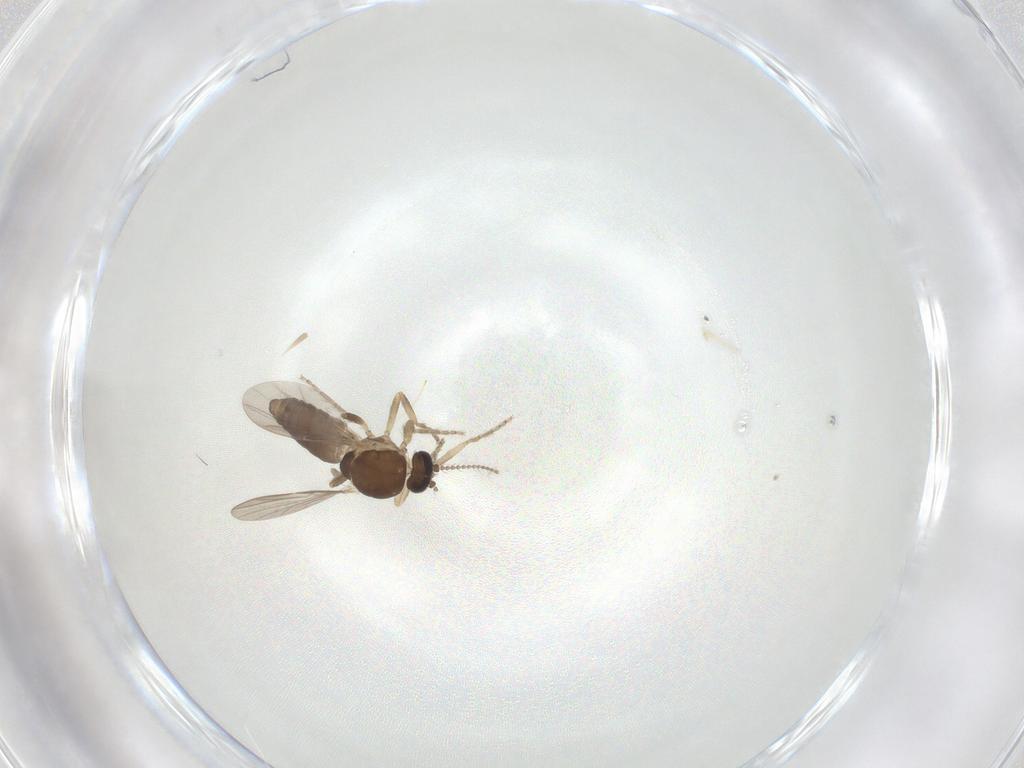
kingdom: Animalia
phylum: Arthropoda
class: Insecta
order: Diptera
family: Ceratopogonidae
